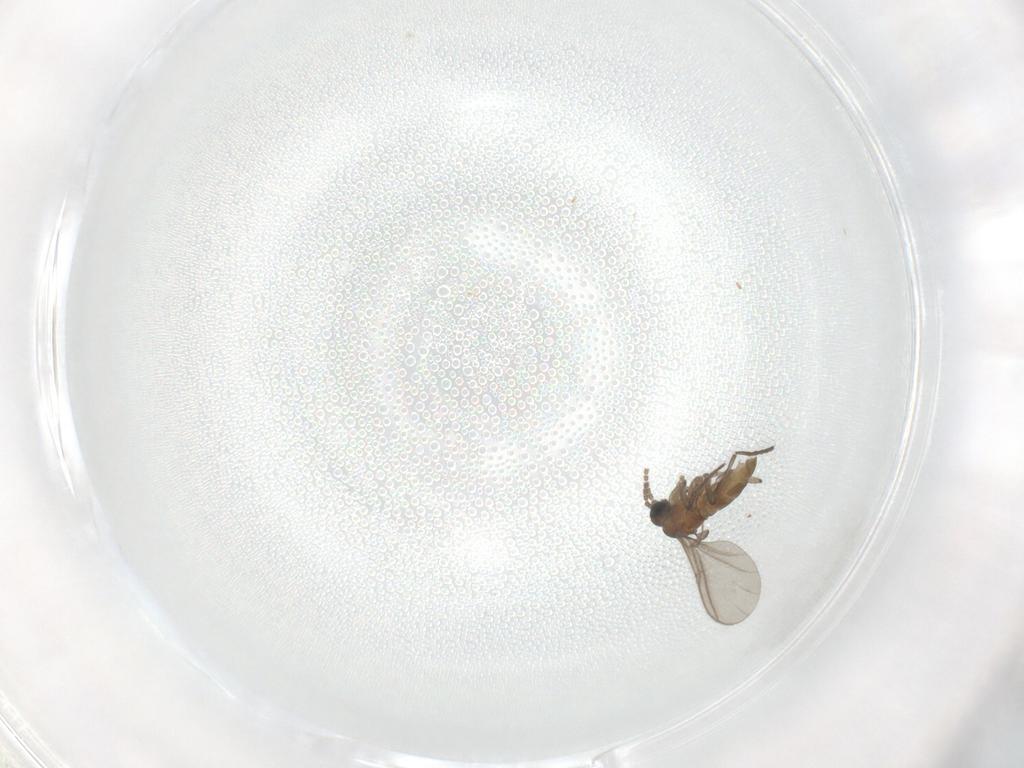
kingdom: Animalia
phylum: Arthropoda
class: Insecta
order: Diptera
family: Sciaridae
